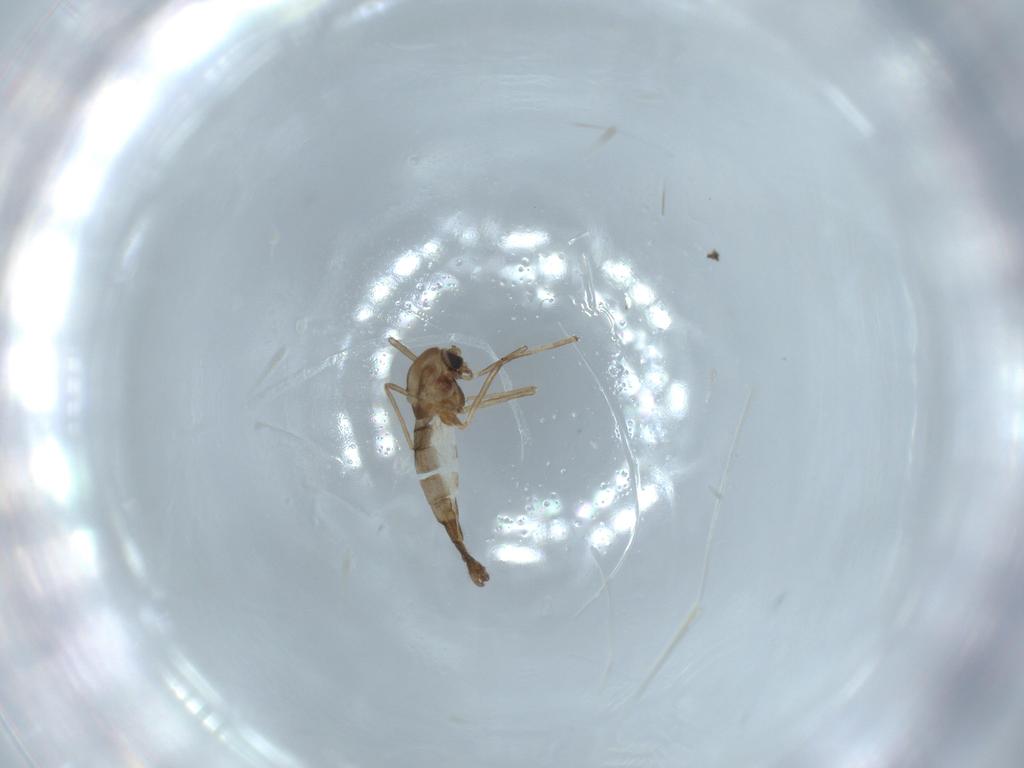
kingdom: Animalia
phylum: Arthropoda
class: Insecta
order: Diptera
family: Chironomidae
